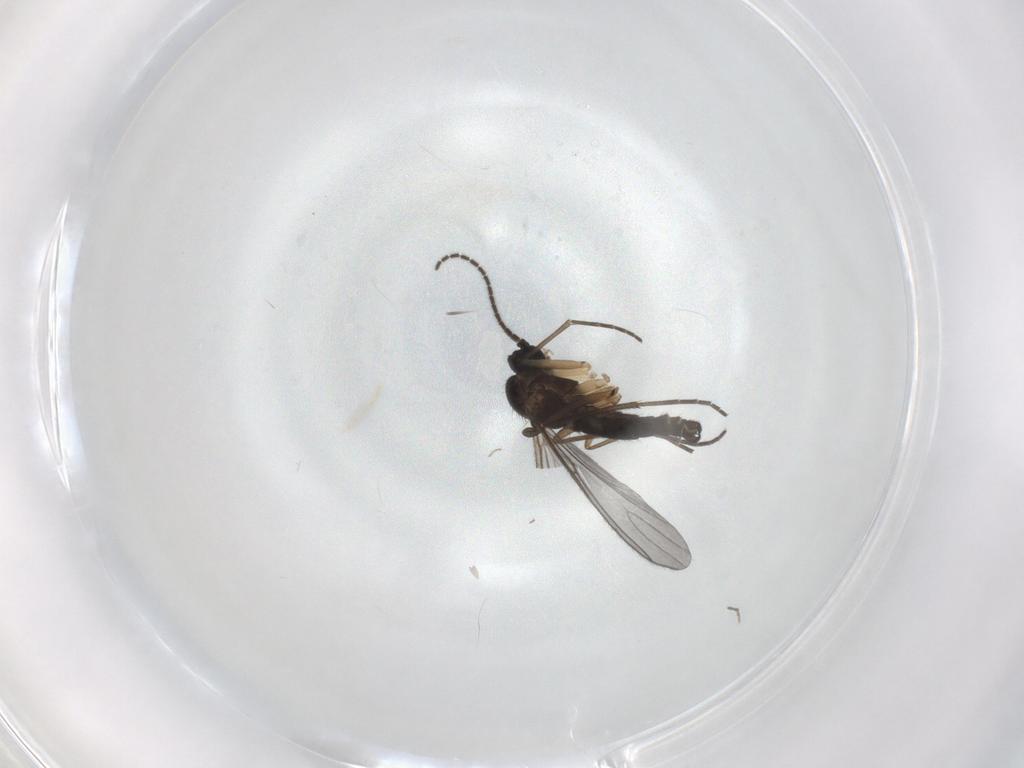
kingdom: Animalia
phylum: Arthropoda
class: Insecta
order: Diptera
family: Sciaridae
